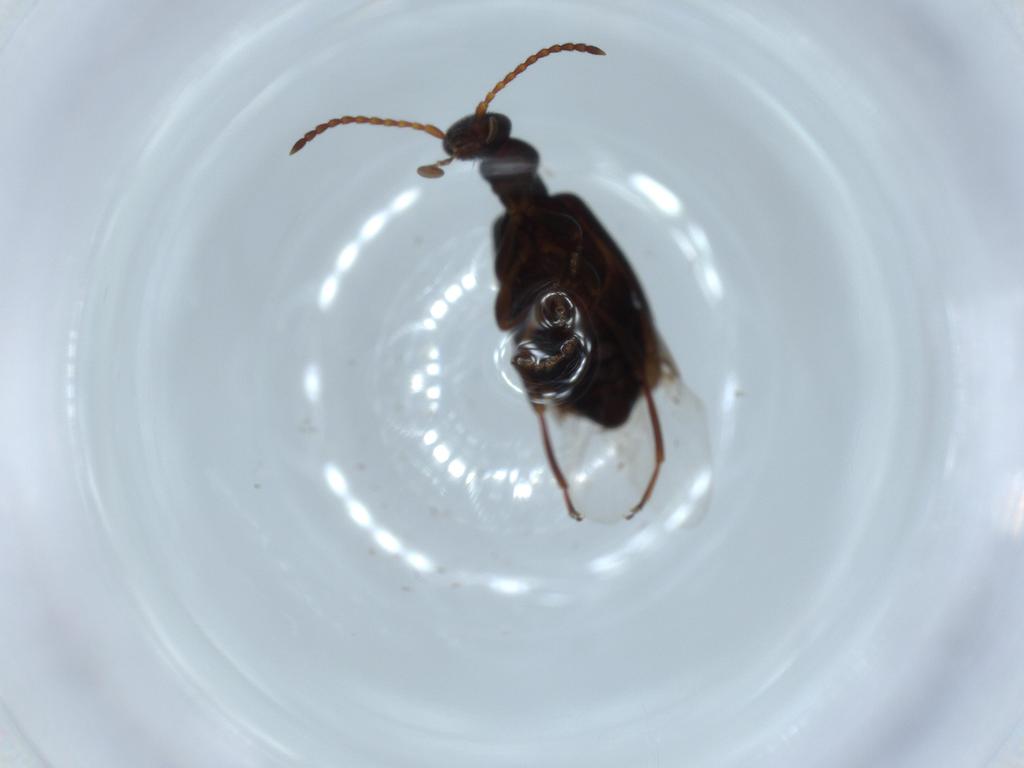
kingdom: Animalia
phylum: Arthropoda
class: Insecta
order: Coleoptera
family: Anthicidae
